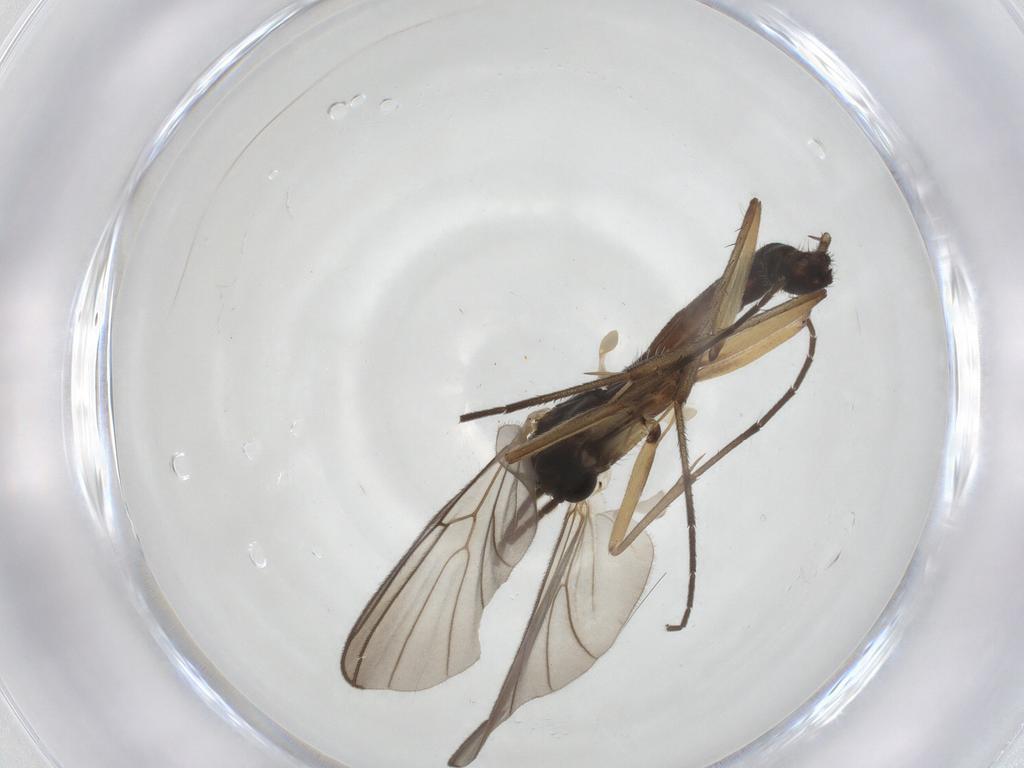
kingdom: Animalia
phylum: Arthropoda
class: Insecta
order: Diptera
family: Mycetophilidae
